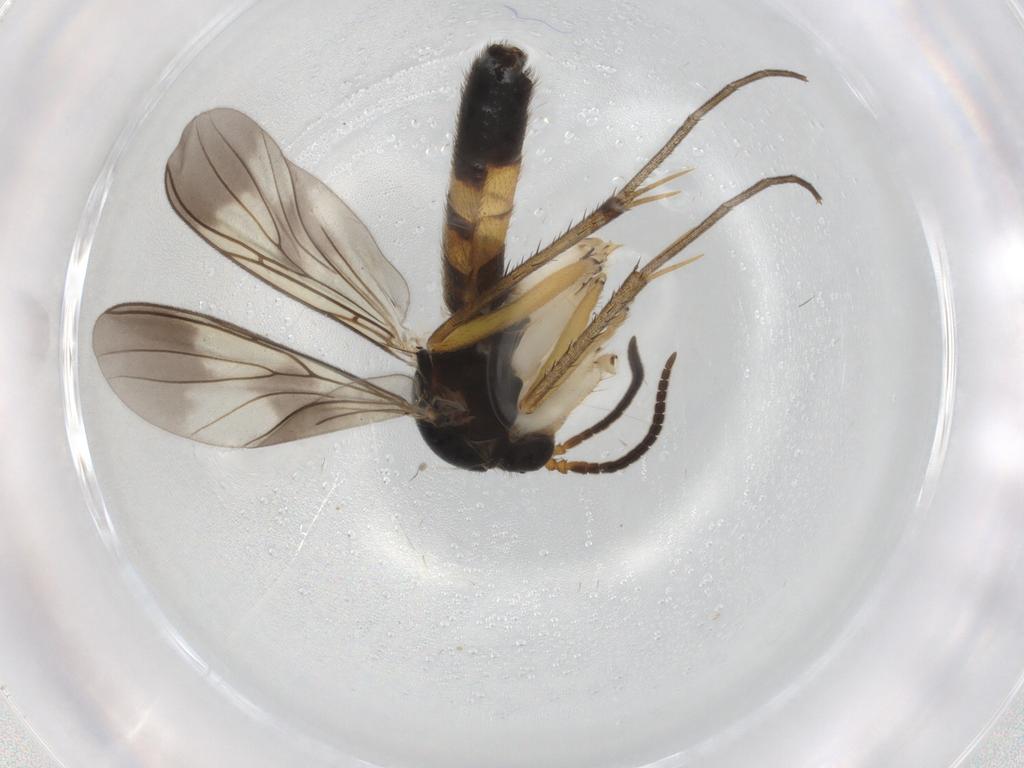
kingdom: Animalia
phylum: Arthropoda
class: Insecta
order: Diptera
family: Mycetophilidae
